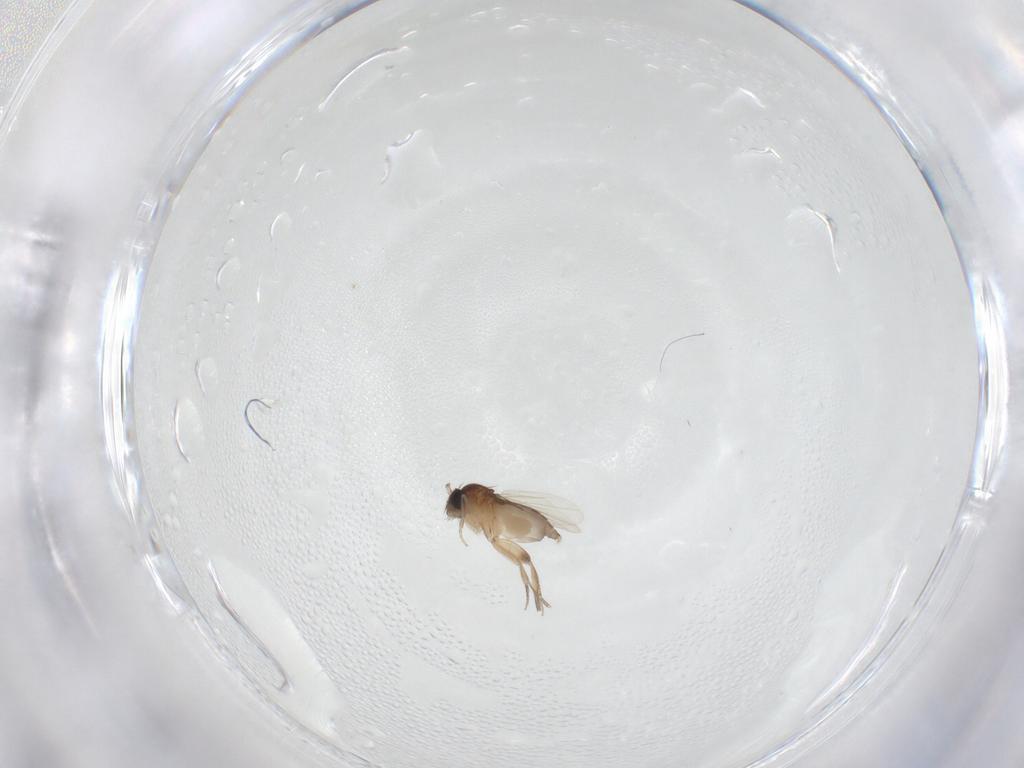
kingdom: Animalia
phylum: Arthropoda
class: Insecta
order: Diptera
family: Phoridae
